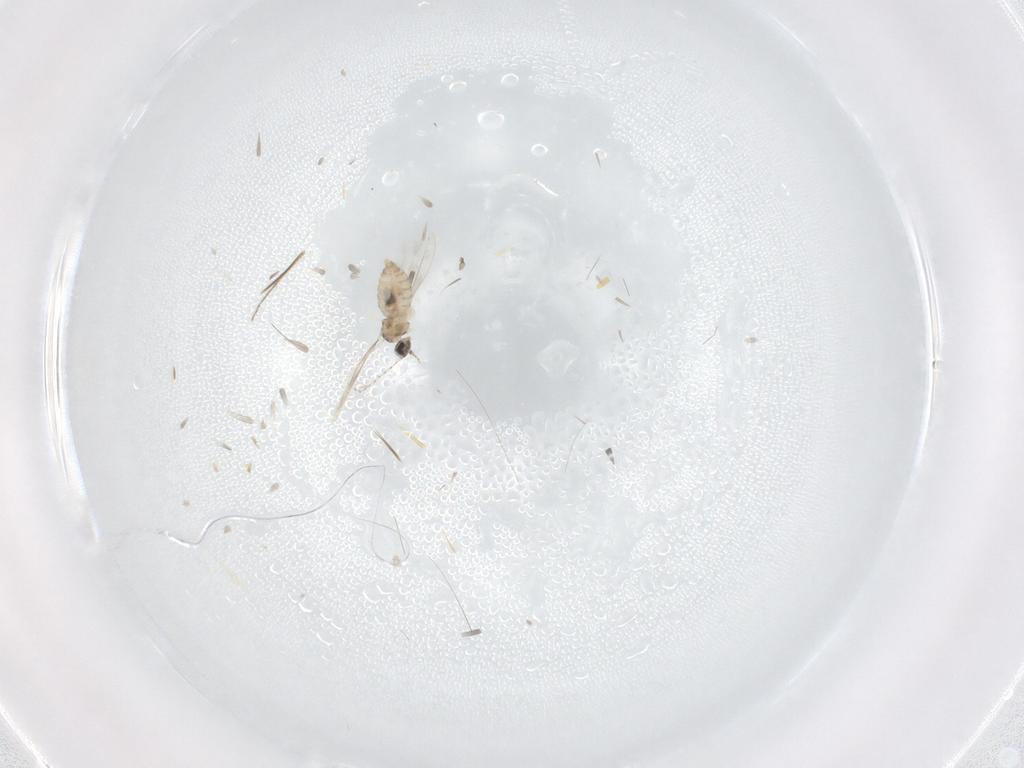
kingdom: Animalia
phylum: Arthropoda
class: Insecta
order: Diptera
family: Cecidomyiidae
